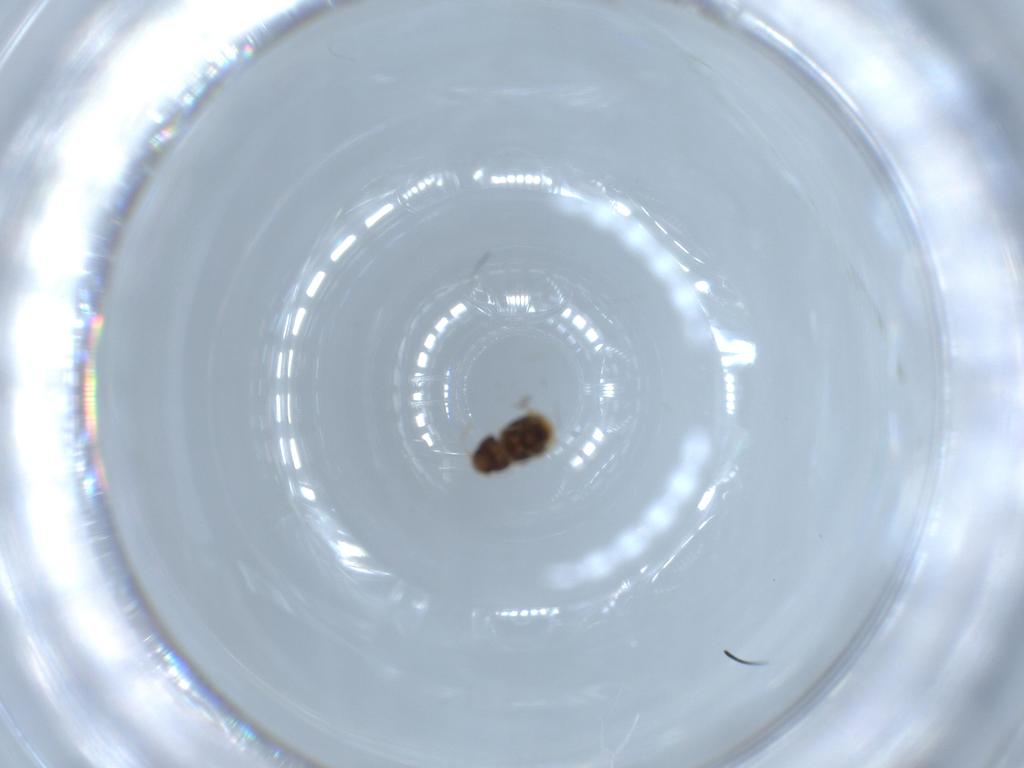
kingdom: Animalia
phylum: Arthropoda
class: Insecta
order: Coleoptera
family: Ptiliidae
